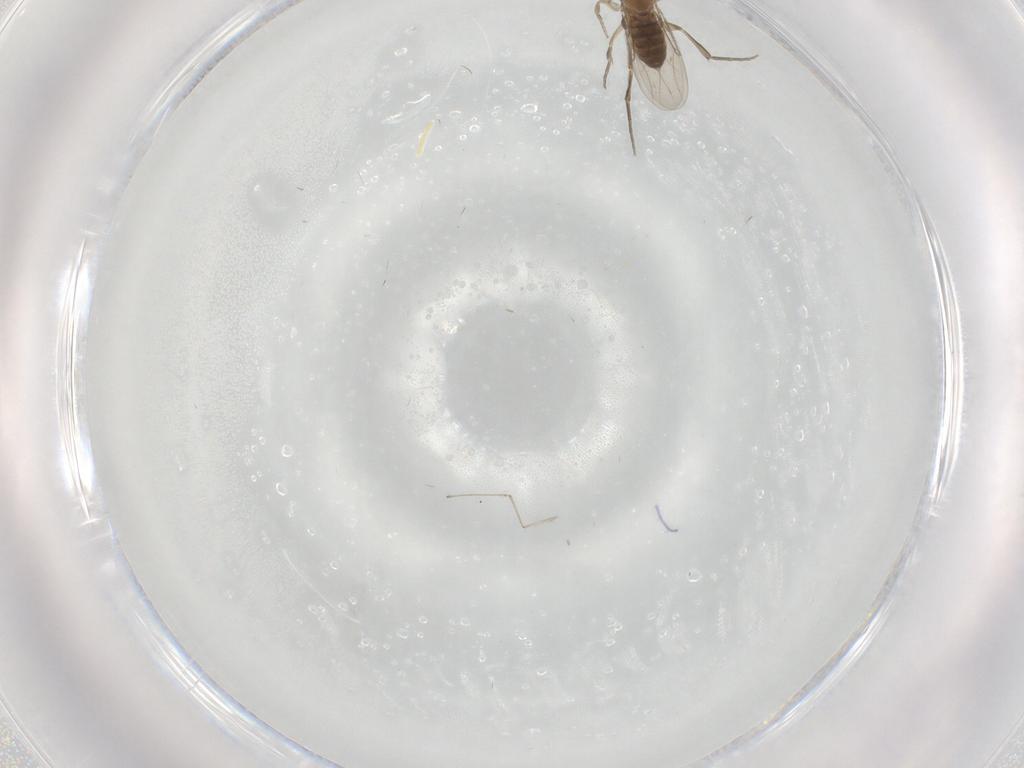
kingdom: Animalia
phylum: Arthropoda
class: Insecta
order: Diptera
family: Phoridae
